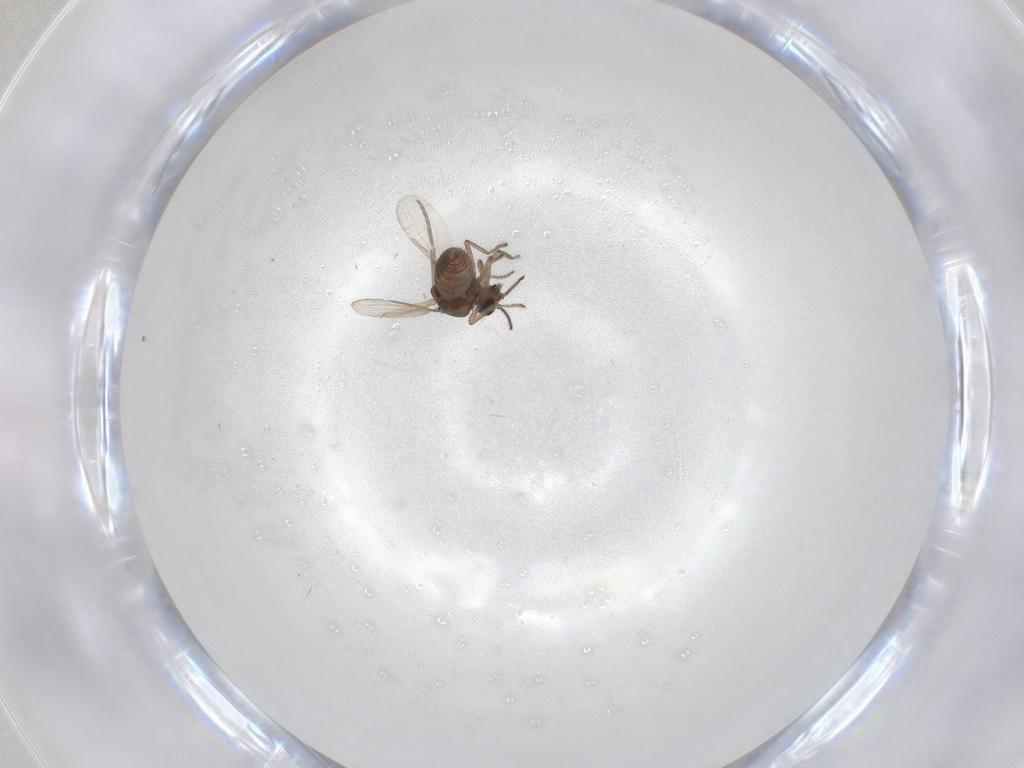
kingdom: Animalia
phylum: Arthropoda
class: Insecta
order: Diptera
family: Ceratopogonidae
